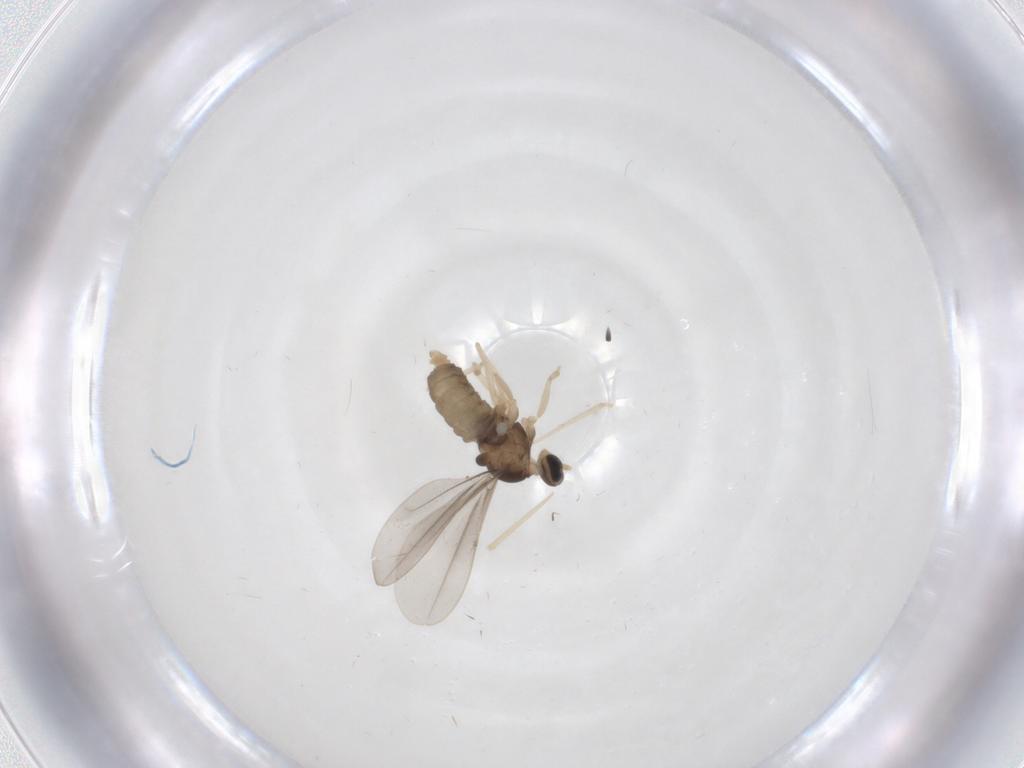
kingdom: Animalia
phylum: Arthropoda
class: Insecta
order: Diptera
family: Cecidomyiidae
